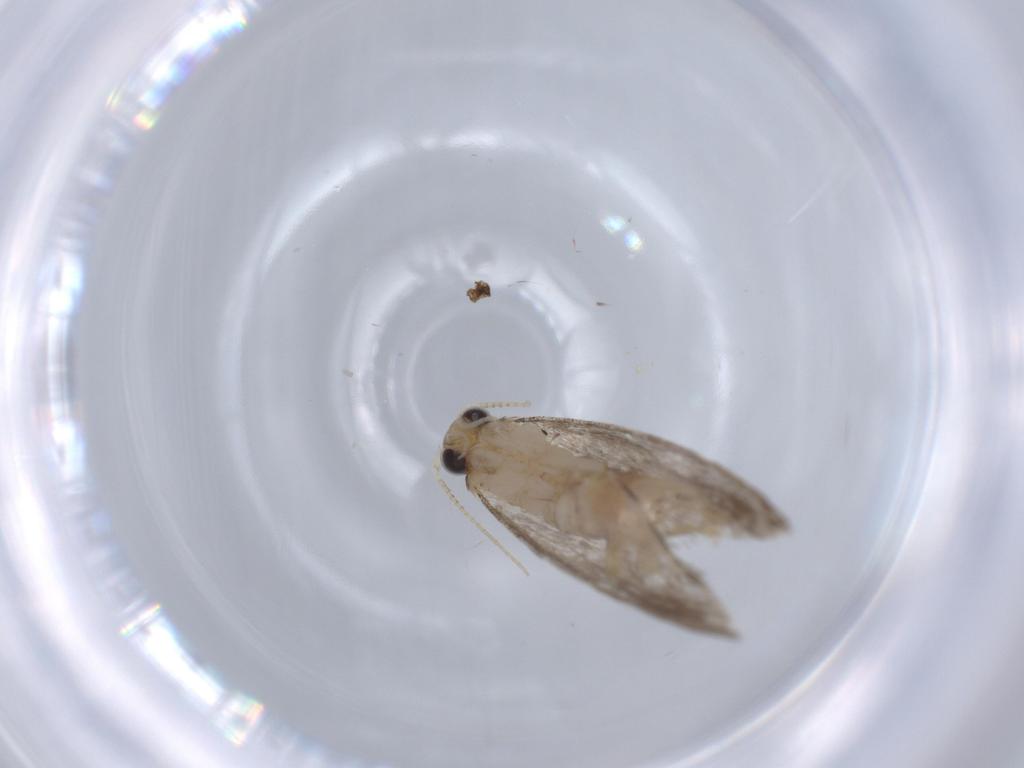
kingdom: Animalia
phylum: Arthropoda
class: Insecta
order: Lepidoptera
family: Tineidae
